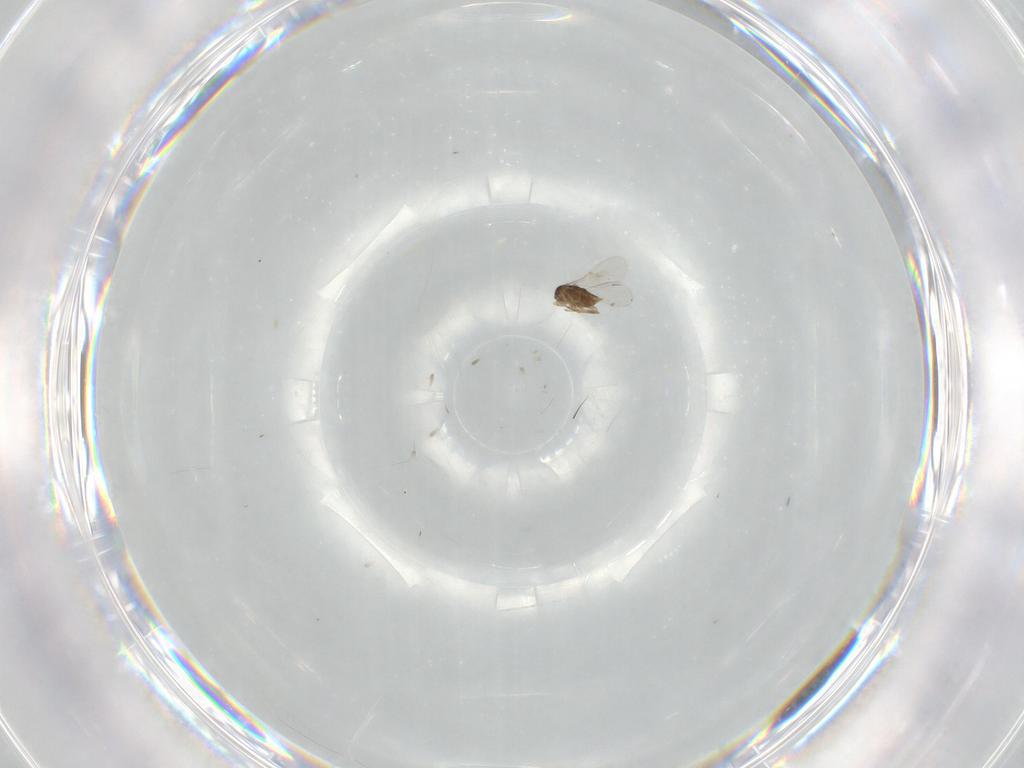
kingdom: Animalia
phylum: Arthropoda
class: Insecta
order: Hymenoptera
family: Encyrtidae
